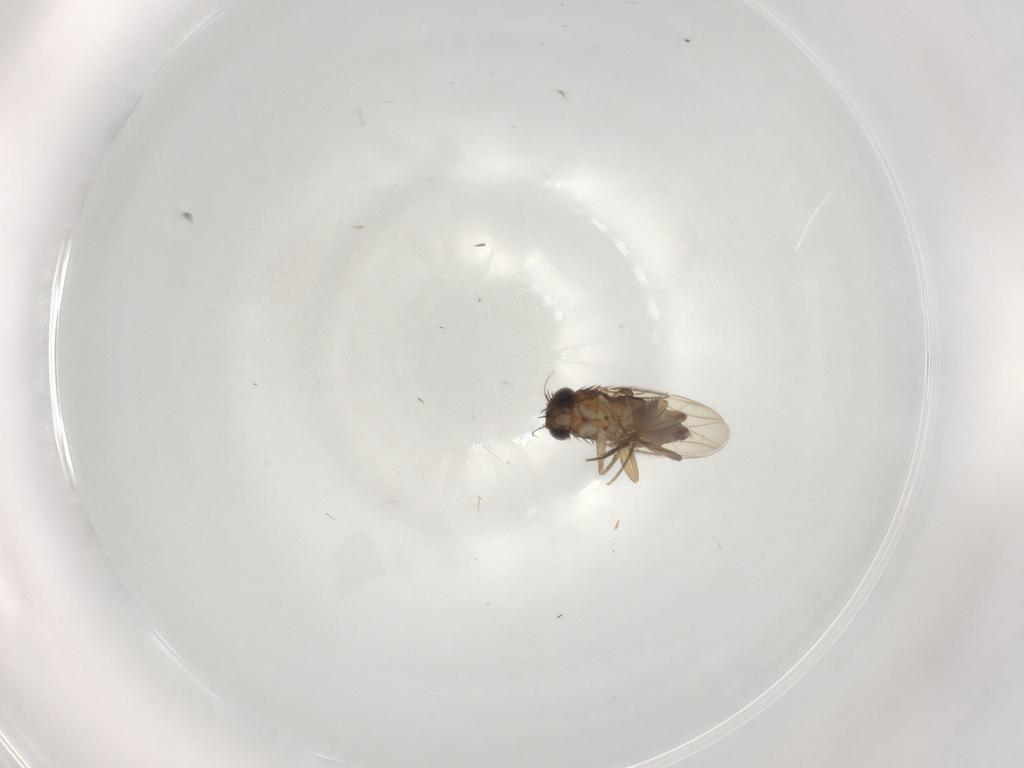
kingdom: Animalia
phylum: Arthropoda
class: Insecta
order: Diptera
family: Phoridae
